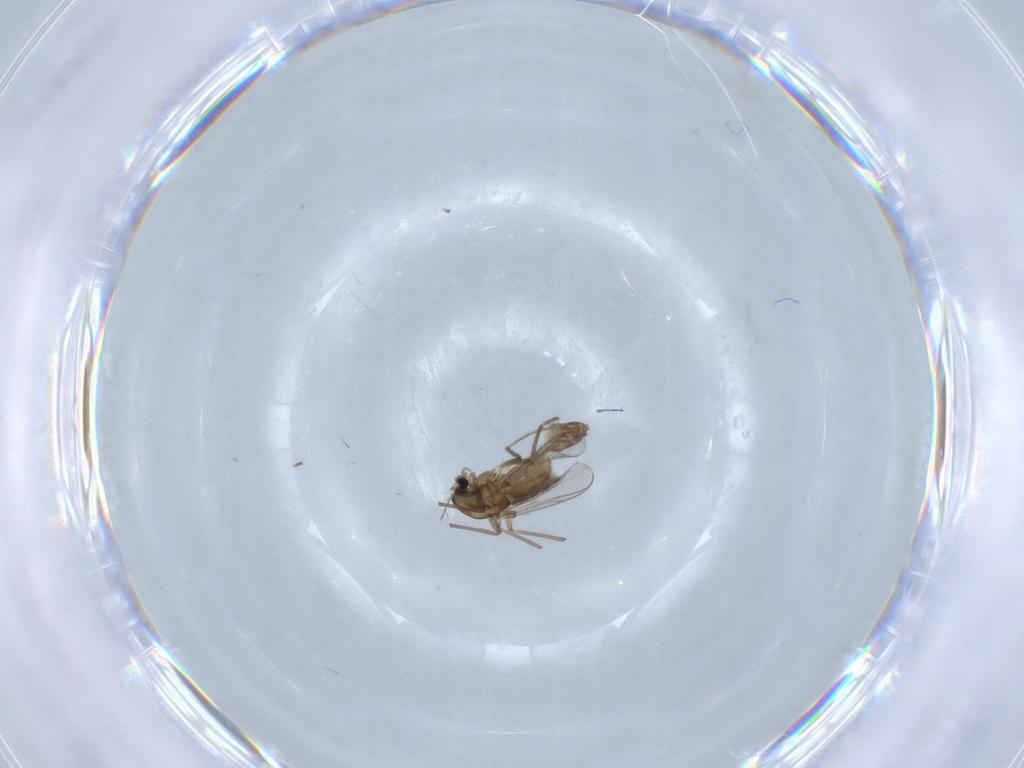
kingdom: Animalia
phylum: Arthropoda
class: Insecta
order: Diptera
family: Chironomidae
